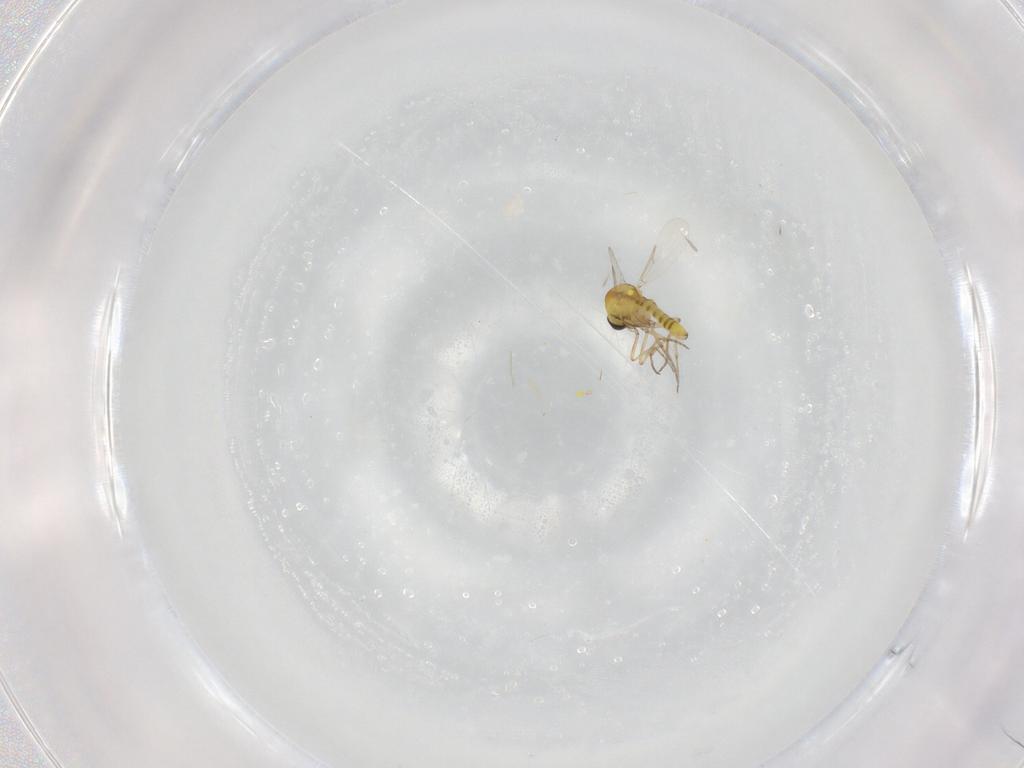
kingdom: Animalia
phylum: Arthropoda
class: Insecta
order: Diptera
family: Ceratopogonidae
